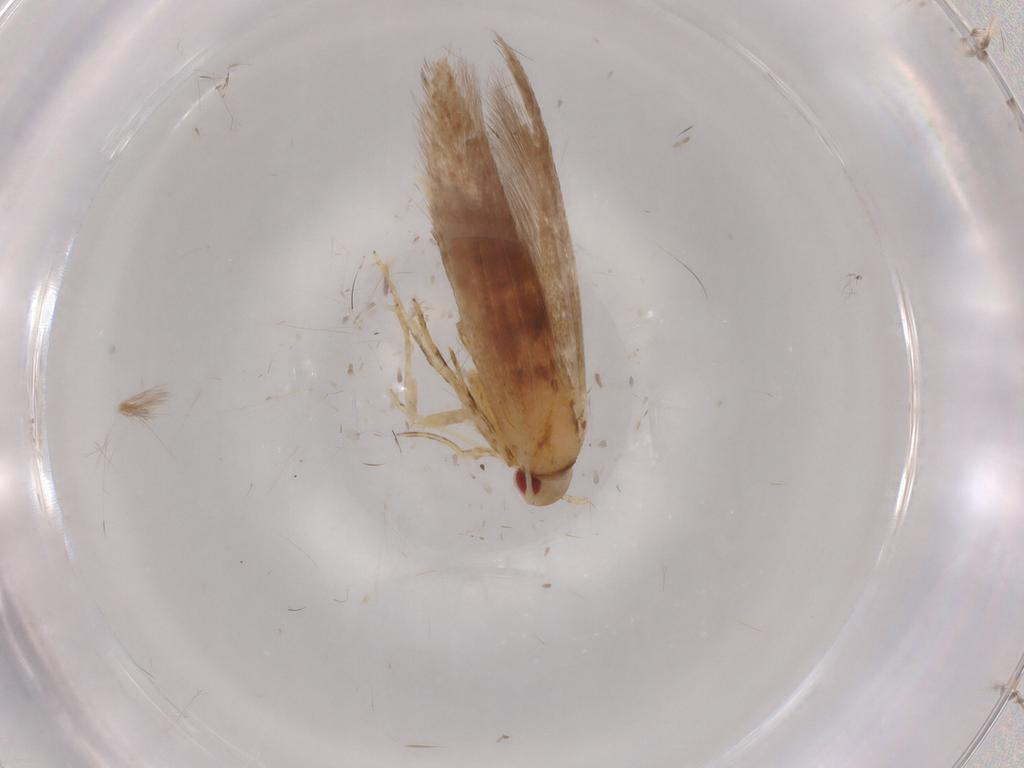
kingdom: Animalia
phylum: Arthropoda
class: Insecta
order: Lepidoptera
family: Cosmopterigidae
